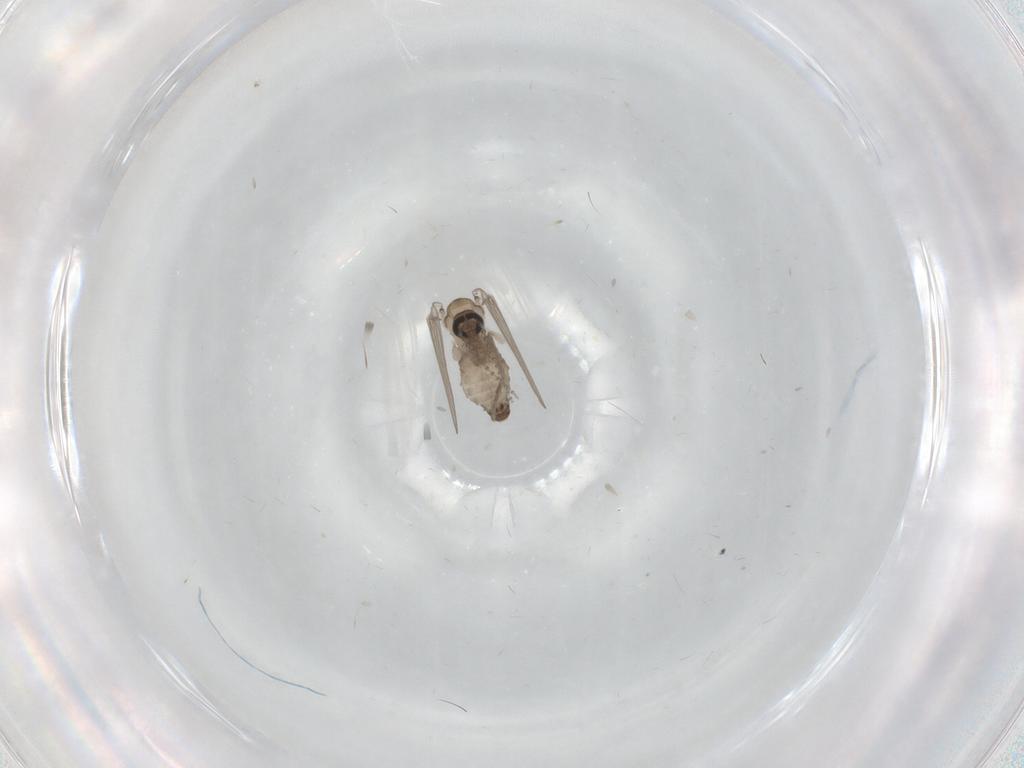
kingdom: Animalia
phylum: Arthropoda
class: Insecta
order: Diptera
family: Psychodidae
